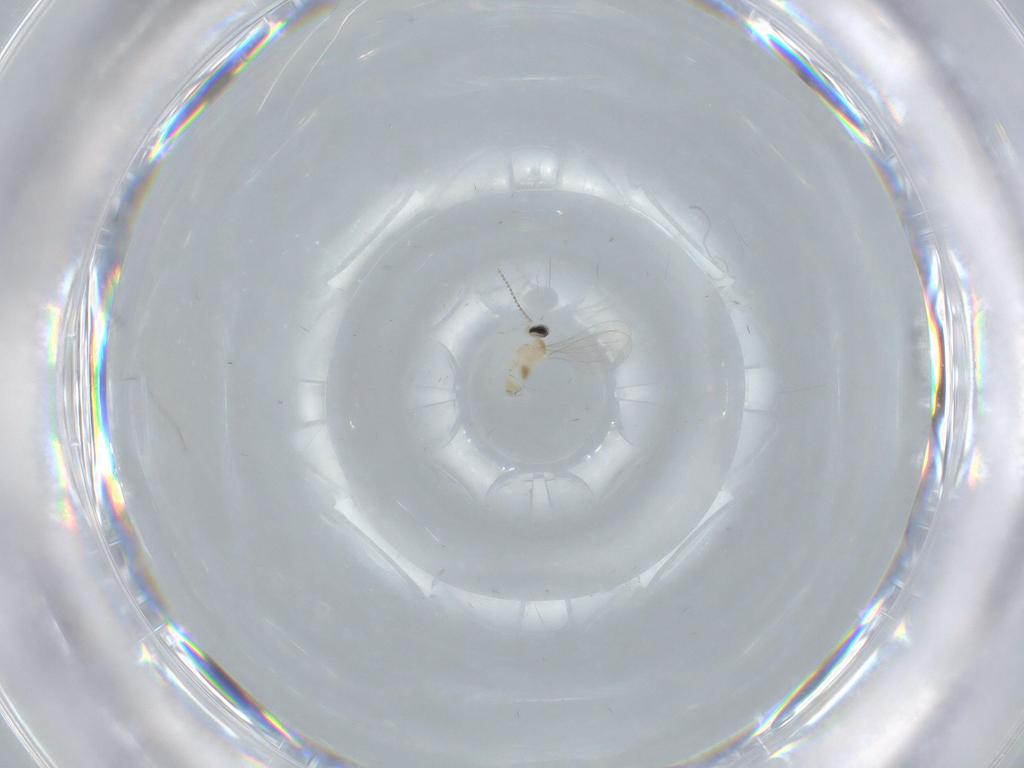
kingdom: Animalia
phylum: Arthropoda
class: Insecta
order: Diptera
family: Cecidomyiidae
